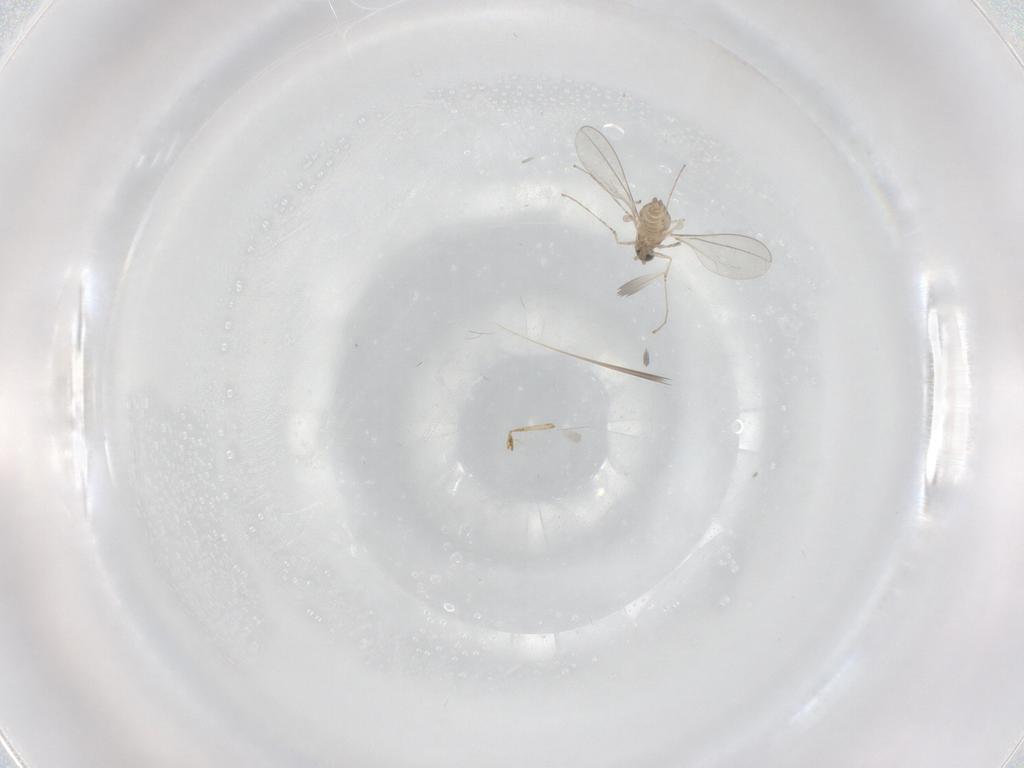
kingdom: Animalia
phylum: Arthropoda
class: Insecta
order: Diptera
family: Cecidomyiidae
